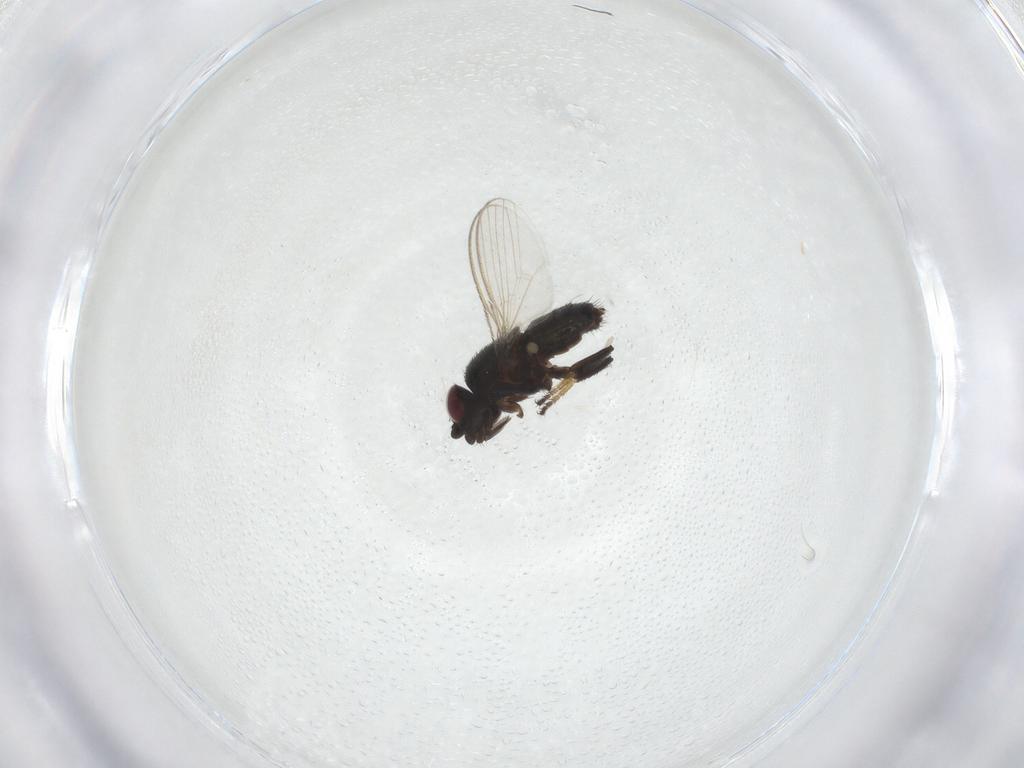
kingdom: Animalia
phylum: Arthropoda
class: Insecta
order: Diptera
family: Milichiidae
